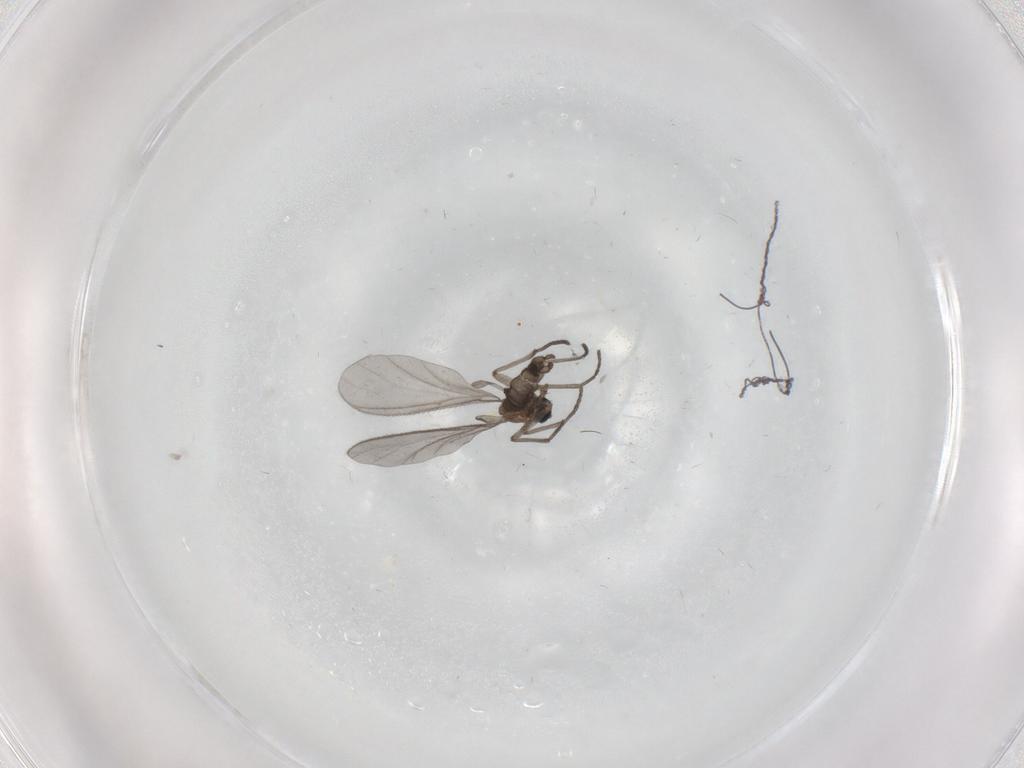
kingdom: Animalia
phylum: Arthropoda
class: Insecta
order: Diptera
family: Sciaridae
